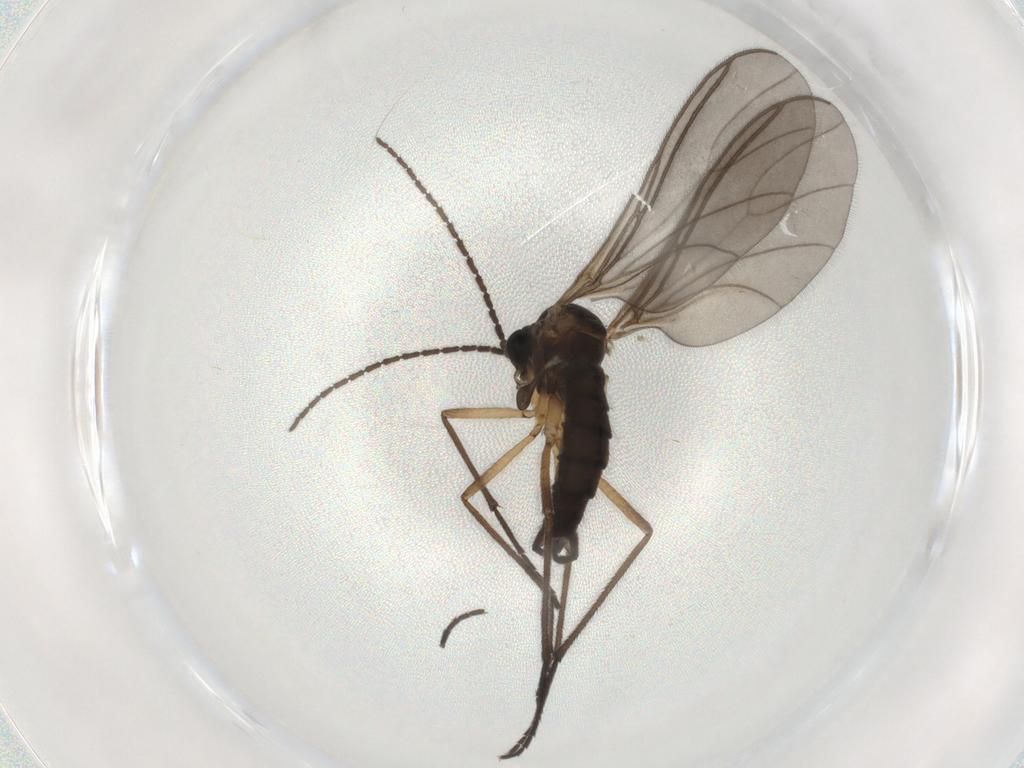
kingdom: Animalia
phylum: Arthropoda
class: Insecta
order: Diptera
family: Sciaridae
